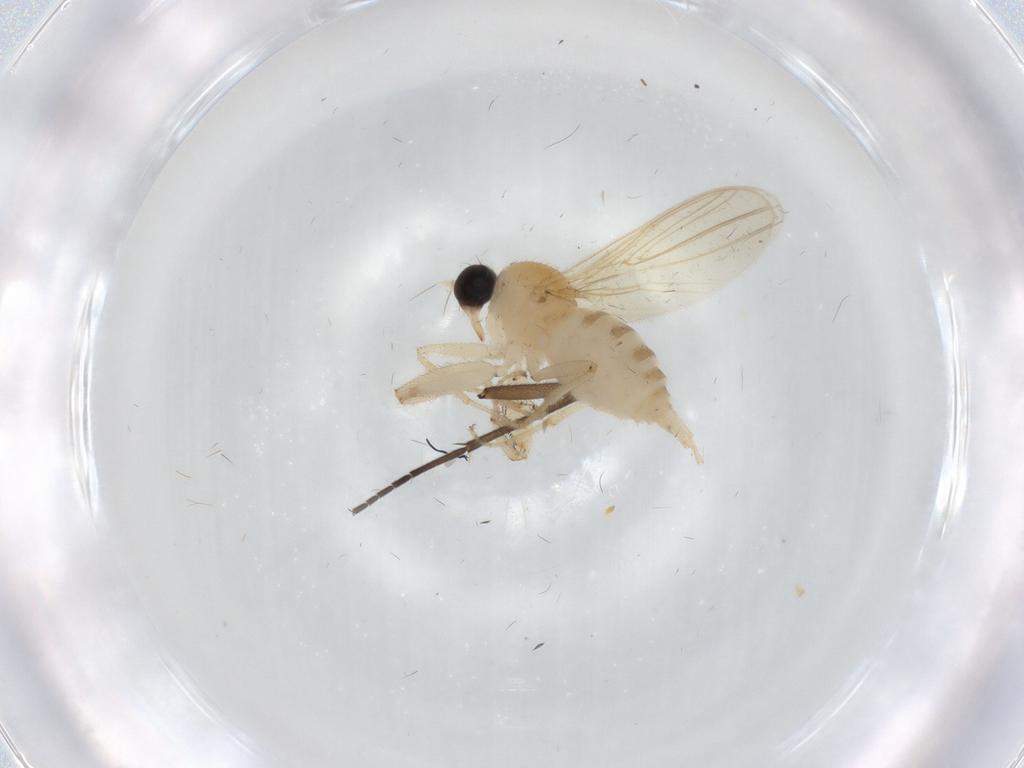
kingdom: Animalia
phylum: Arthropoda
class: Insecta
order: Diptera
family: Hybotidae
